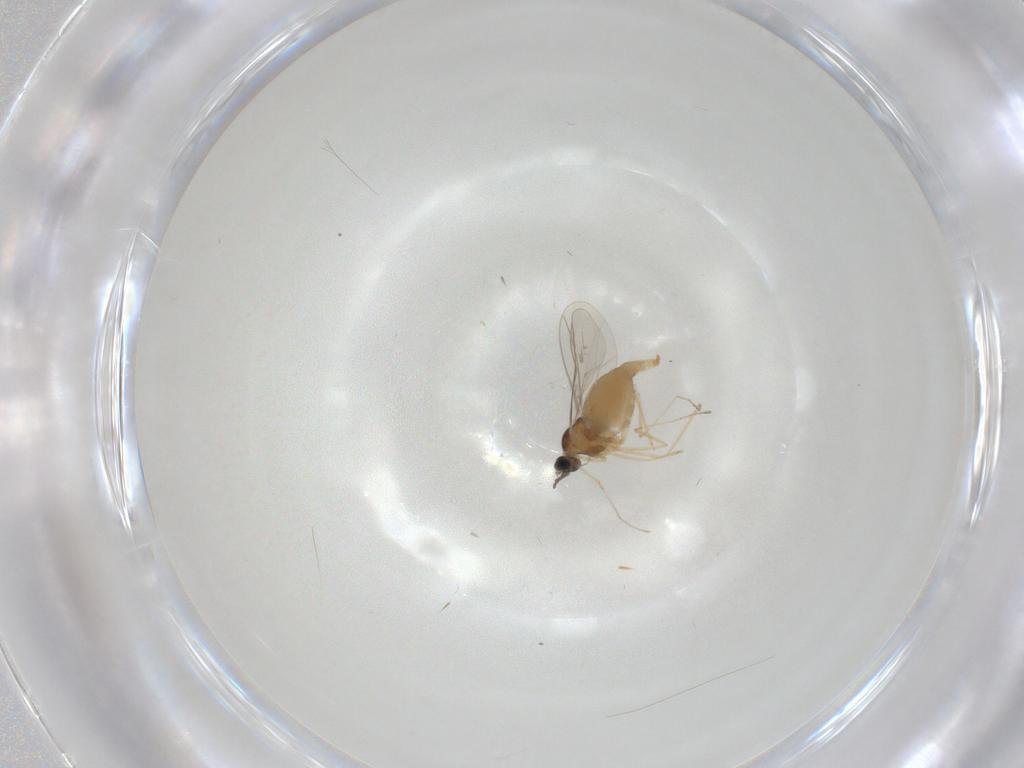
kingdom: Animalia
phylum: Arthropoda
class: Insecta
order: Diptera
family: Cecidomyiidae
